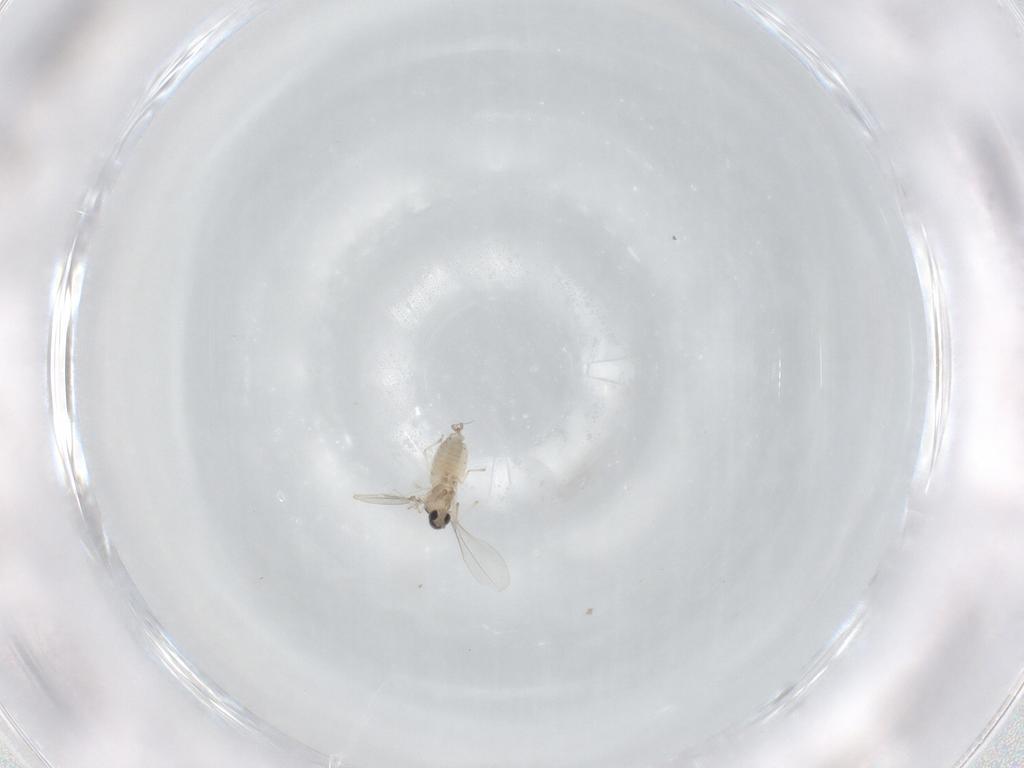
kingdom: Animalia
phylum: Arthropoda
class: Insecta
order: Diptera
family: Cecidomyiidae
